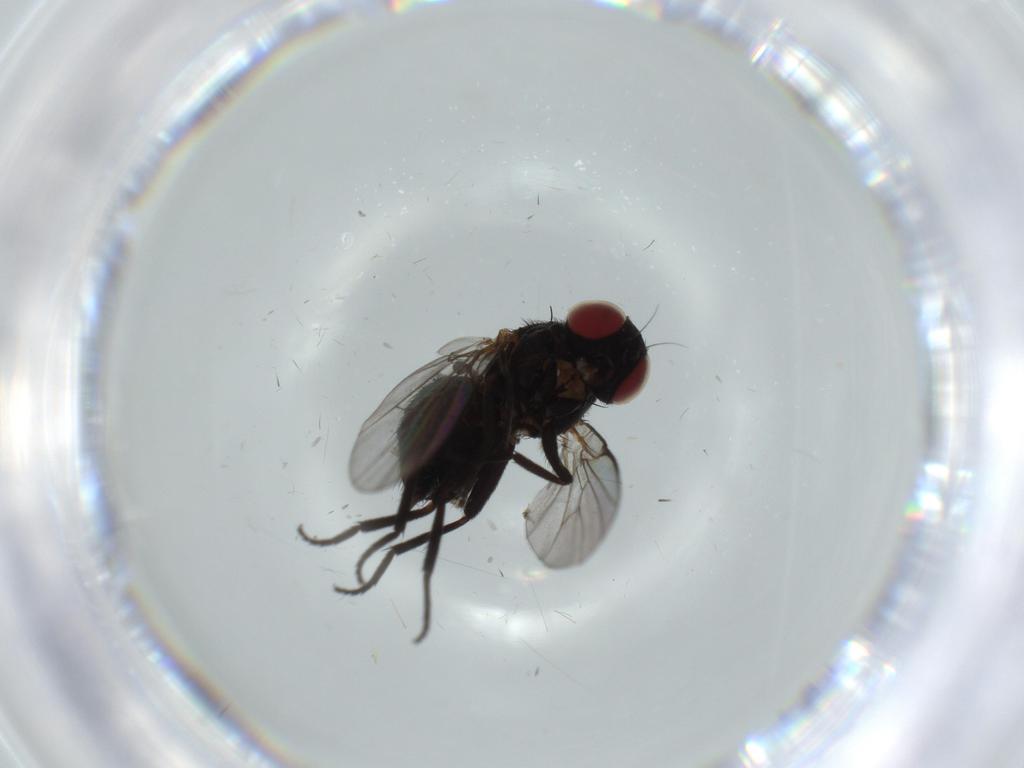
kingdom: Animalia
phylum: Arthropoda
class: Insecta
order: Diptera
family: Agromyzidae
